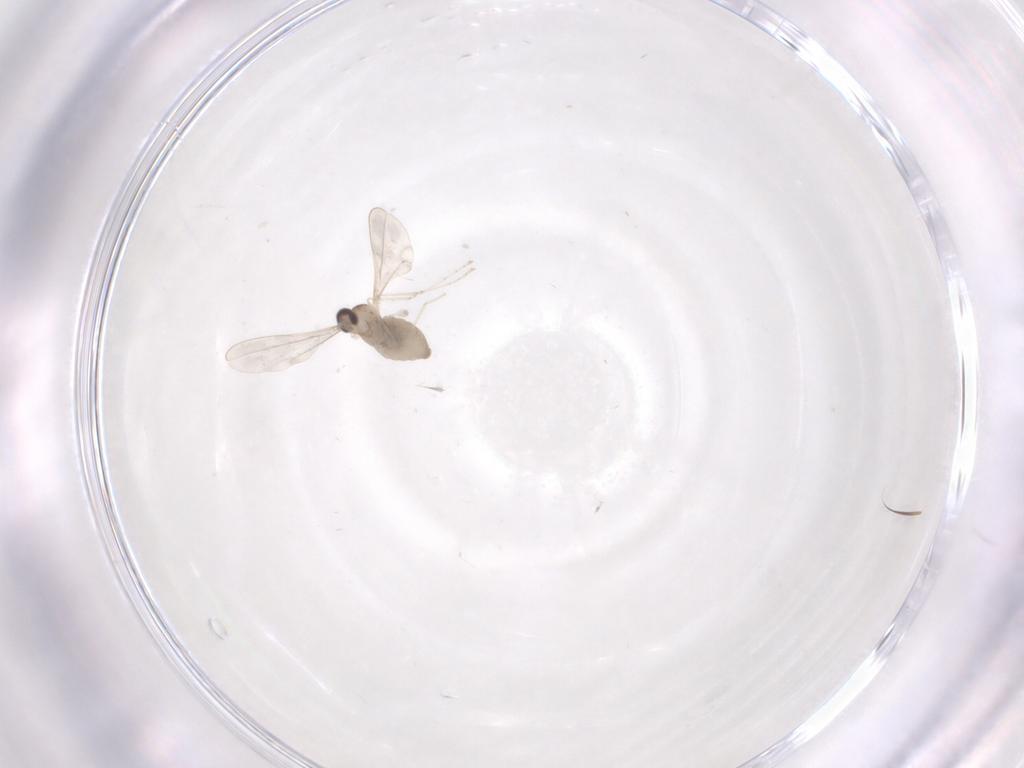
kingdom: Animalia
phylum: Arthropoda
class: Insecta
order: Diptera
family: Cecidomyiidae
